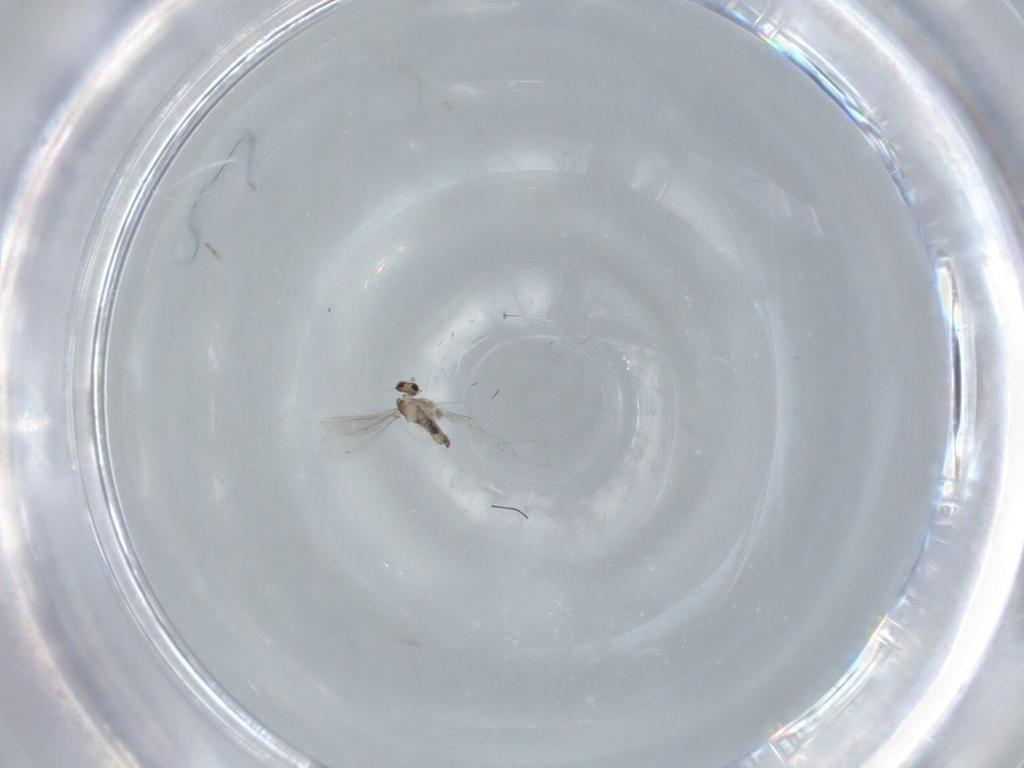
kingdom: Animalia
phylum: Arthropoda
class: Insecta
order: Diptera
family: Cecidomyiidae
